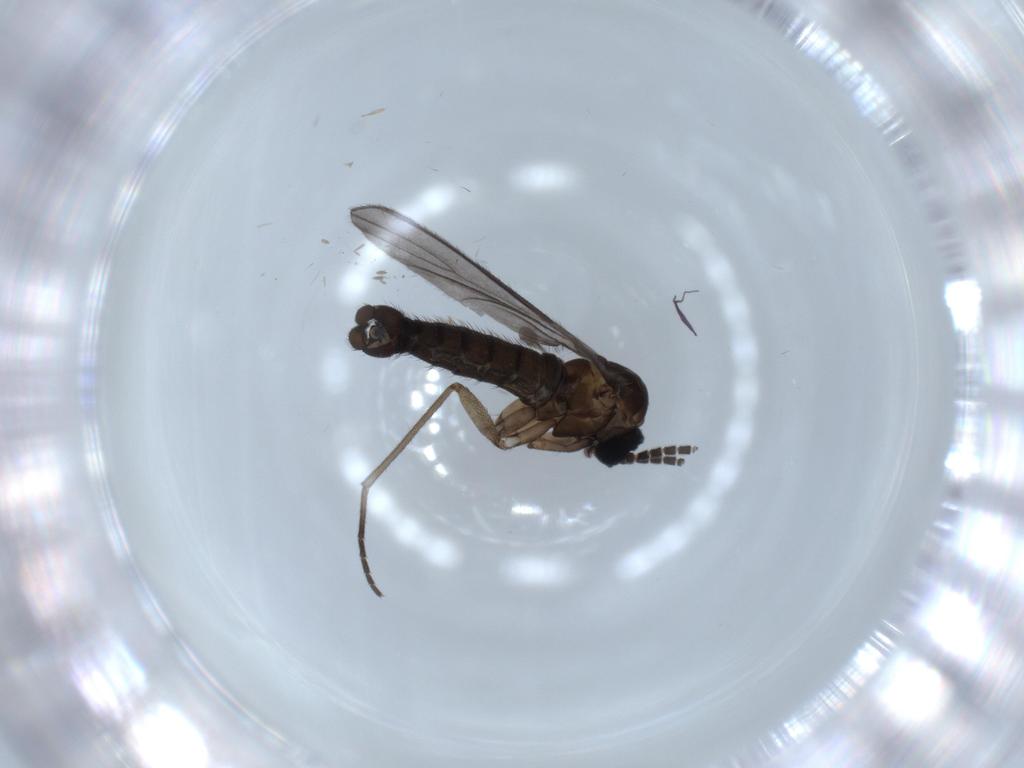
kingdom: Animalia
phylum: Arthropoda
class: Insecta
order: Diptera
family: Sciaridae
